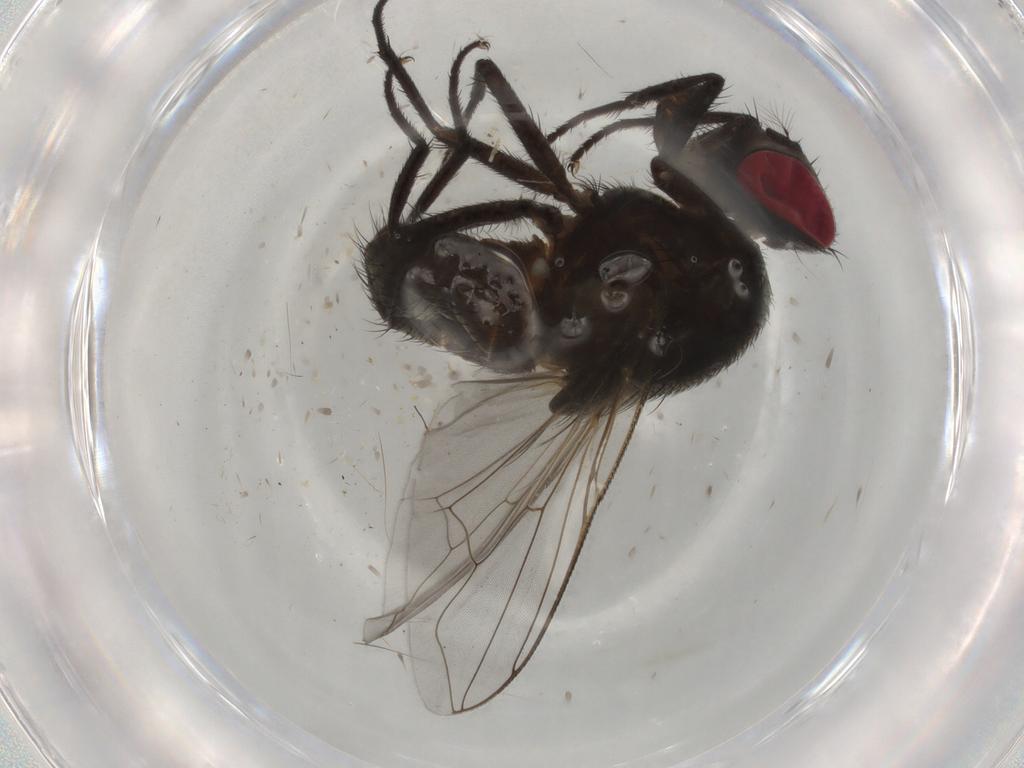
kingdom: Animalia
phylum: Arthropoda
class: Insecta
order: Diptera
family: Muscidae
